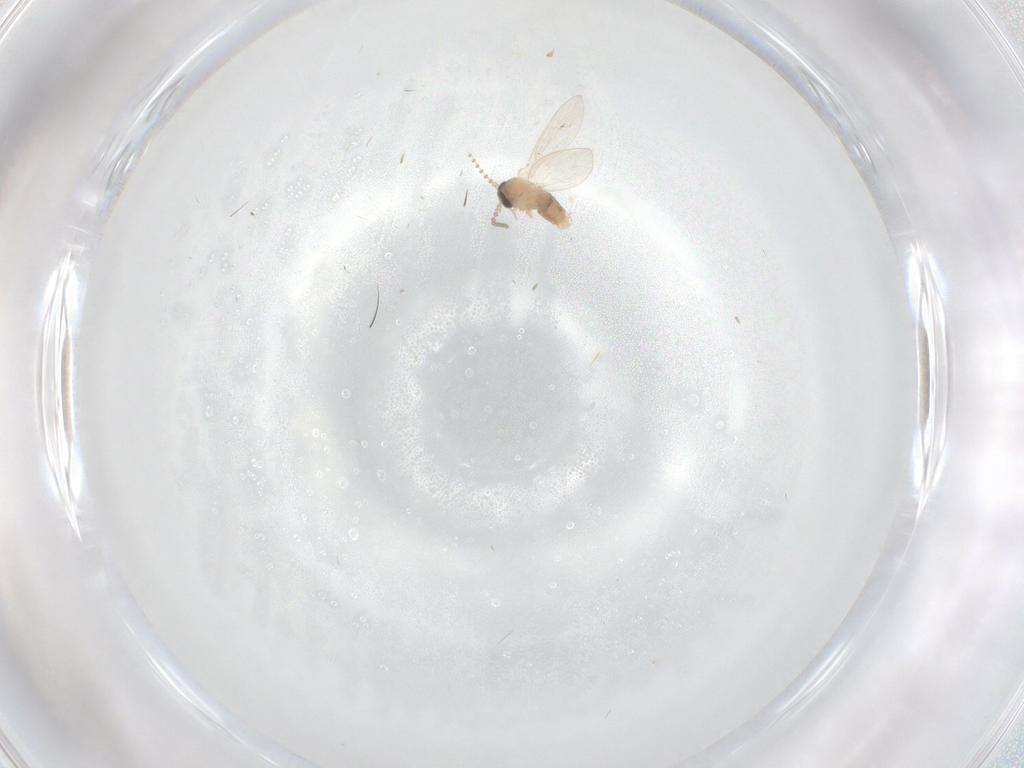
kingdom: Animalia
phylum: Arthropoda
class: Insecta
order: Diptera
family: Psychodidae
